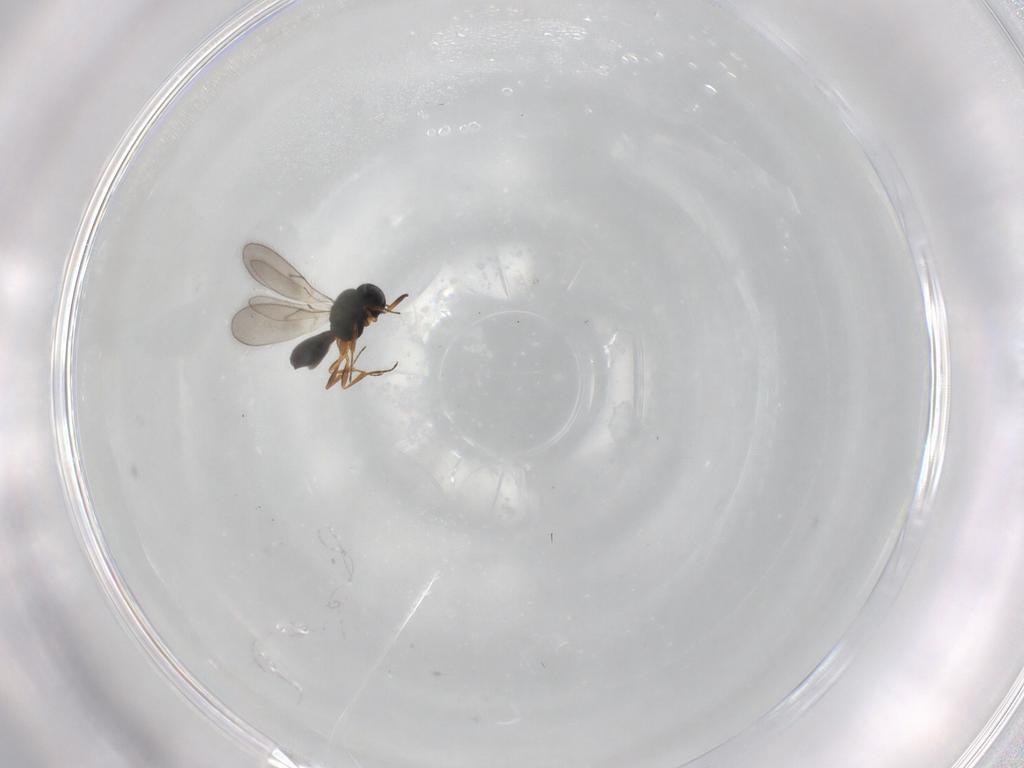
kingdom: Animalia
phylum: Arthropoda
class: Insecta
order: Hymenoptera
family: Scelionidae
